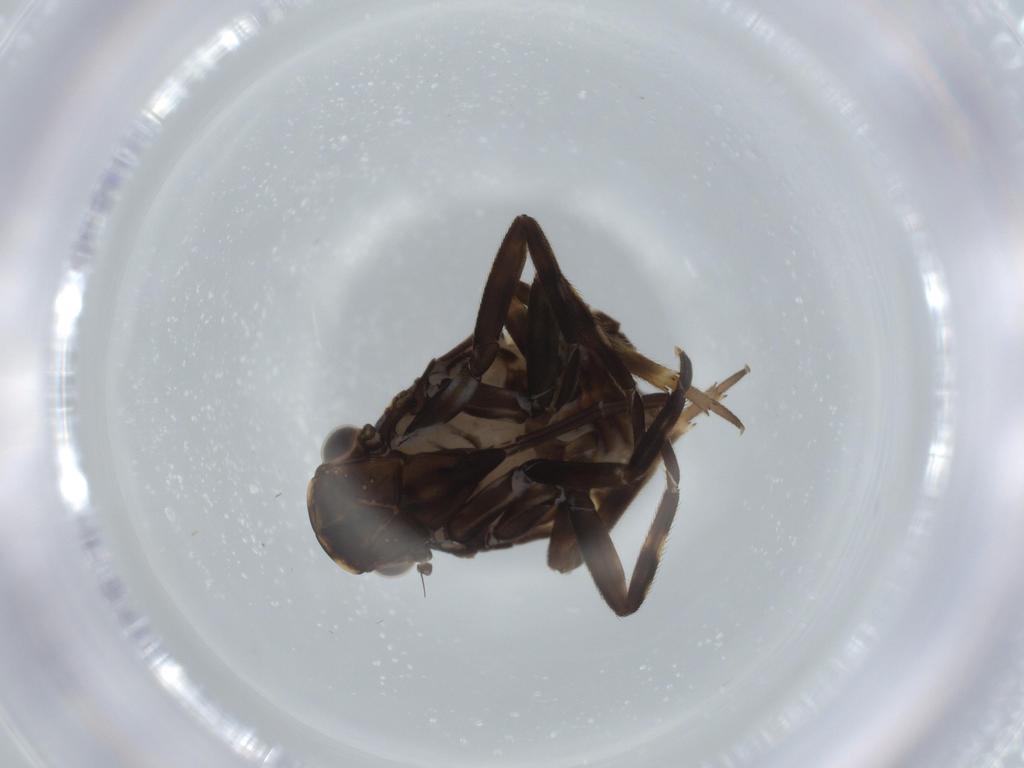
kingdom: Animalia
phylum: Arthropoda
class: Insecta
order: Hemiptera
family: Fulgoridae
